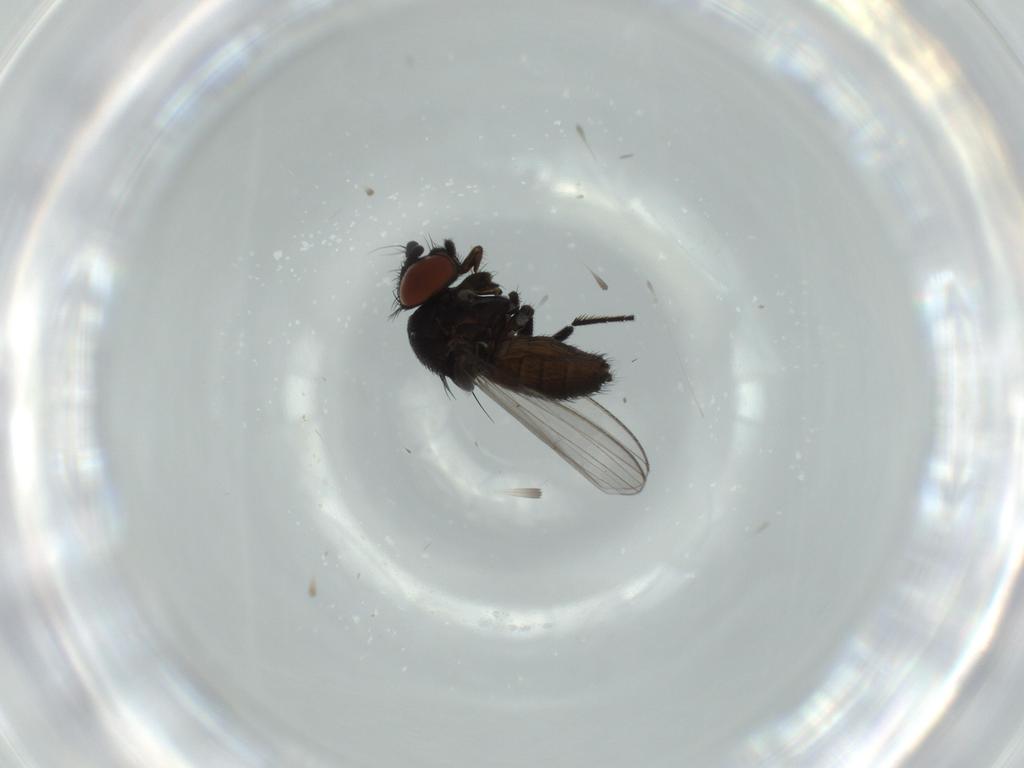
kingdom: Animalia
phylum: Arthropoda
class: Insecta
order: Diptera
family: Milichiidae
